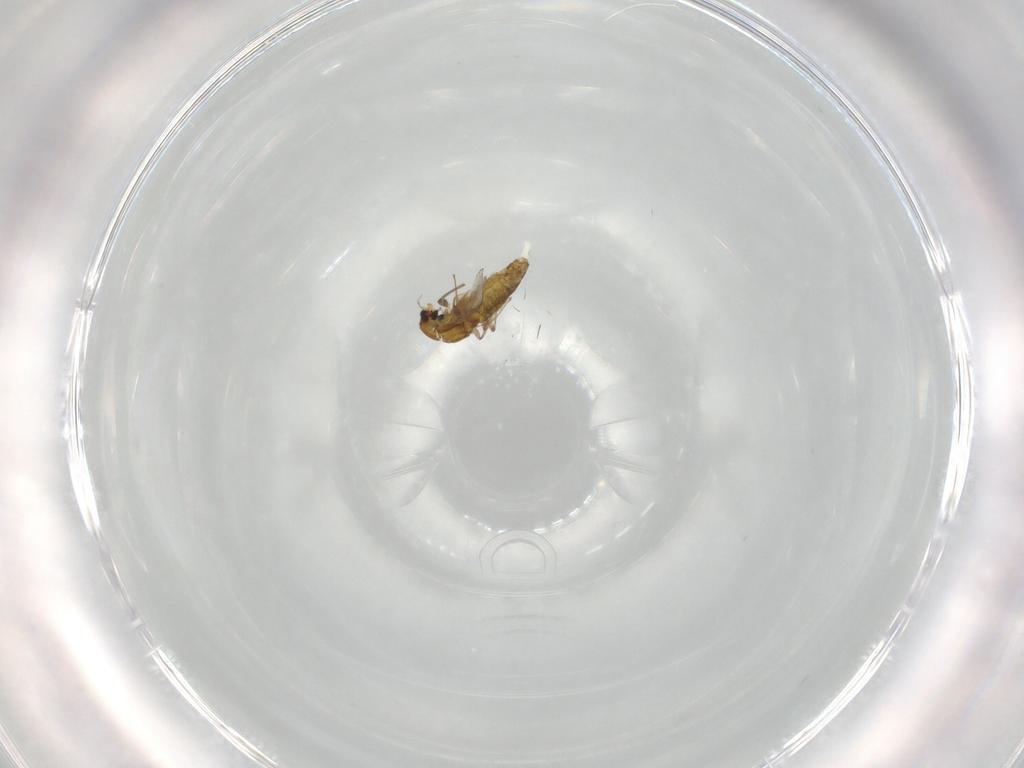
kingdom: Animalia
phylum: Arthropoda
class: Insecta
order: Diptera
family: Chironomidae
